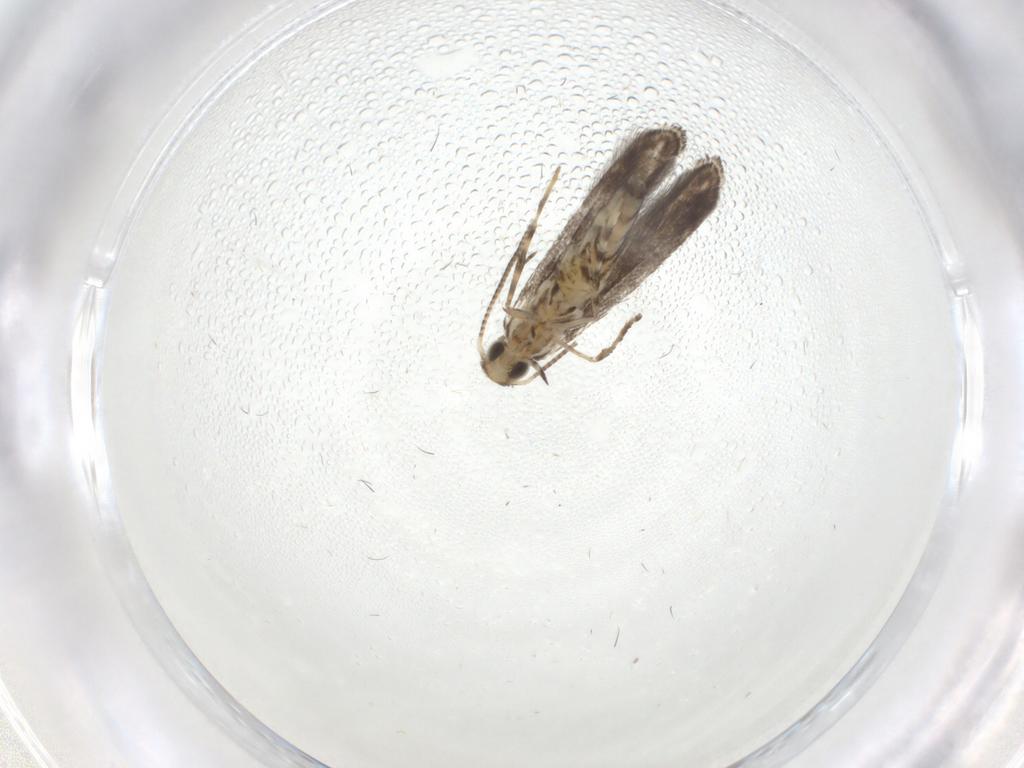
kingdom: Animalia
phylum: Arthropoda
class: Insecta
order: Lepidoptera
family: Gracillariidae
